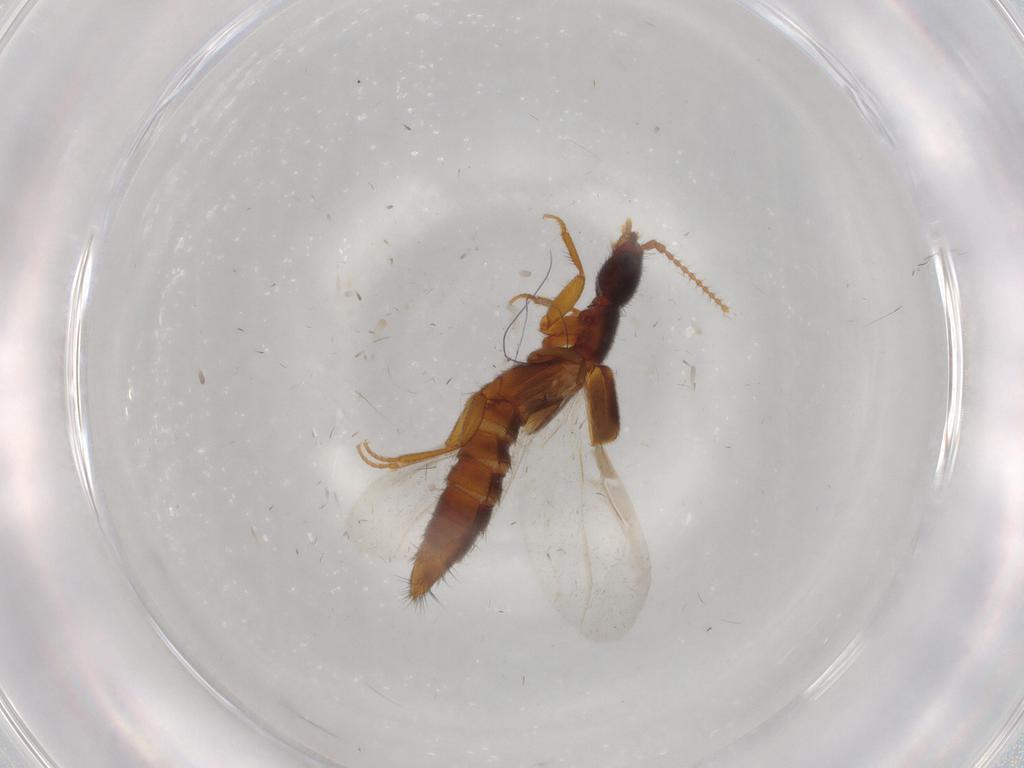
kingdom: Animalia
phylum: Arthropoda
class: Insecta
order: Coleoptera
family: Staphylinidae
